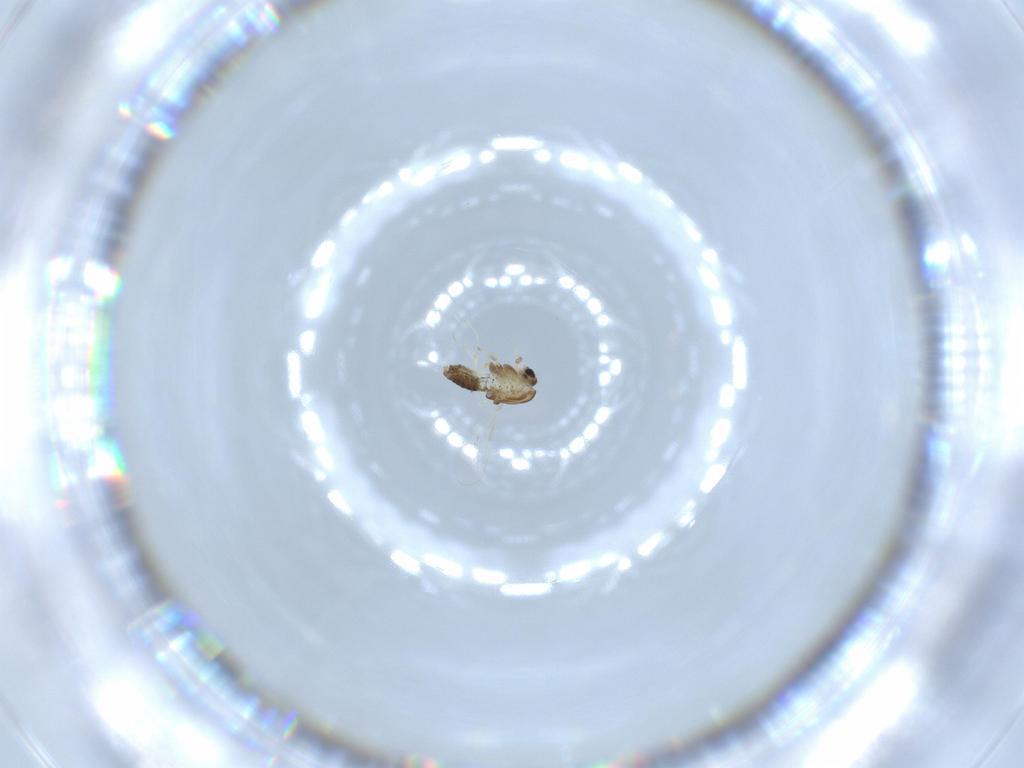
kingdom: Animalia
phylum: Arthropoda
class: Insecta
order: Diptera
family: Chironomidae
